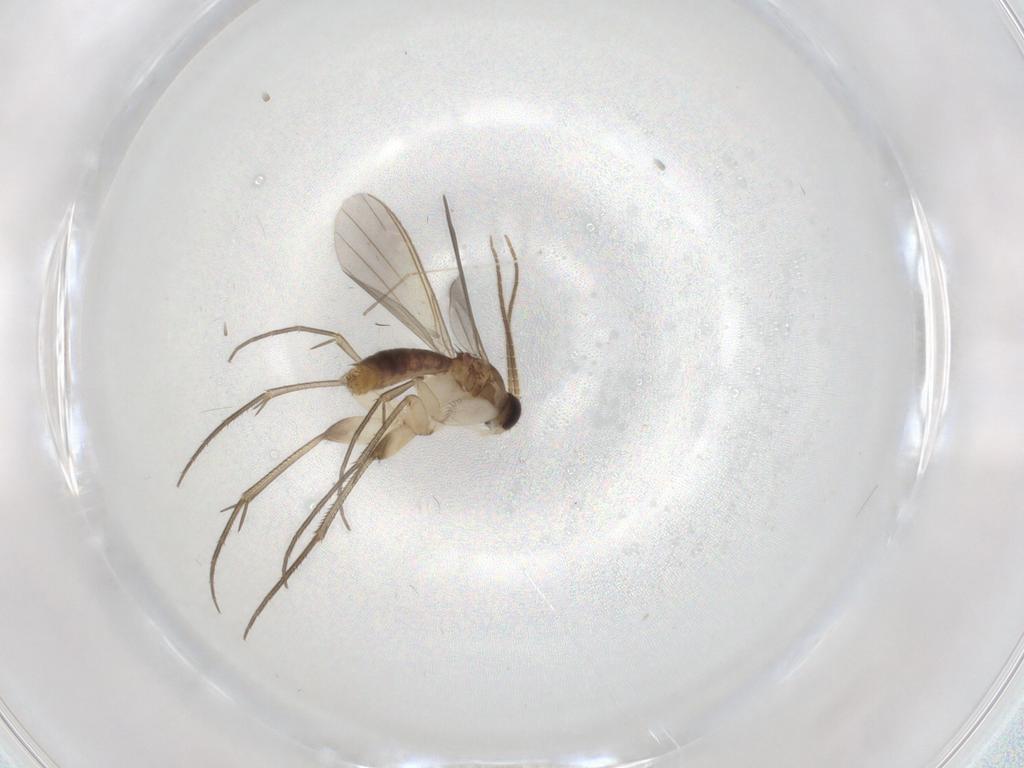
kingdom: Animalia
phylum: Arthropoda
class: Insecta
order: Diptera
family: Mycetophilidae
